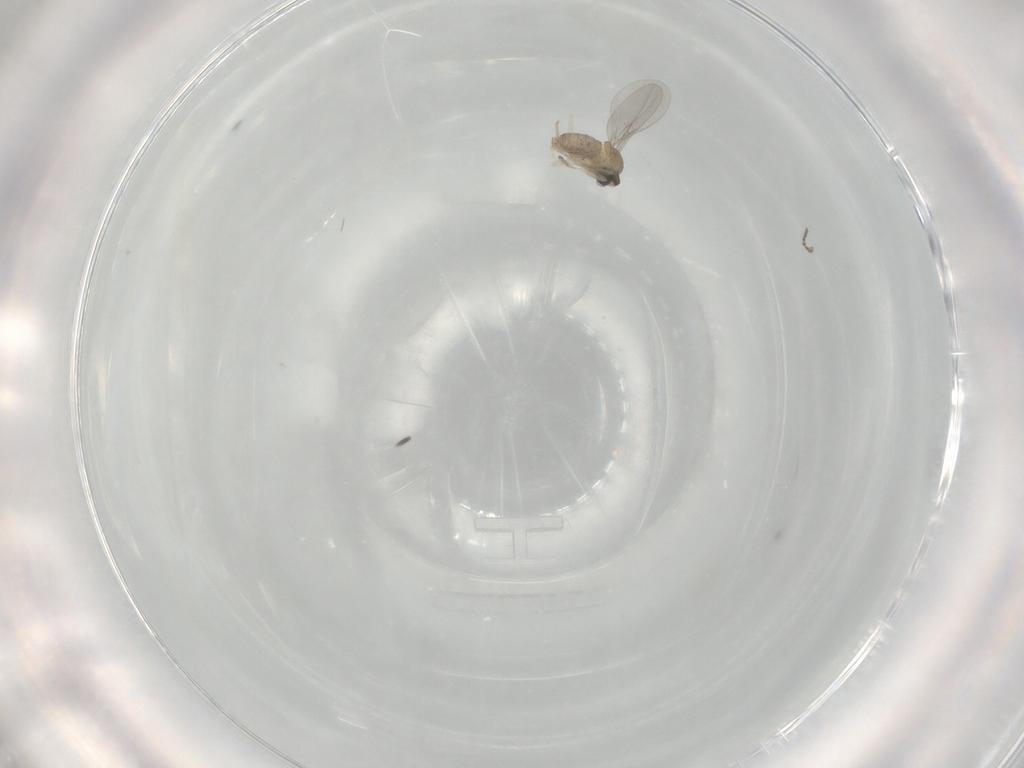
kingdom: Animalia
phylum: Arthropoda
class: Insecta
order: Diptera
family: Cecidomyiidae
